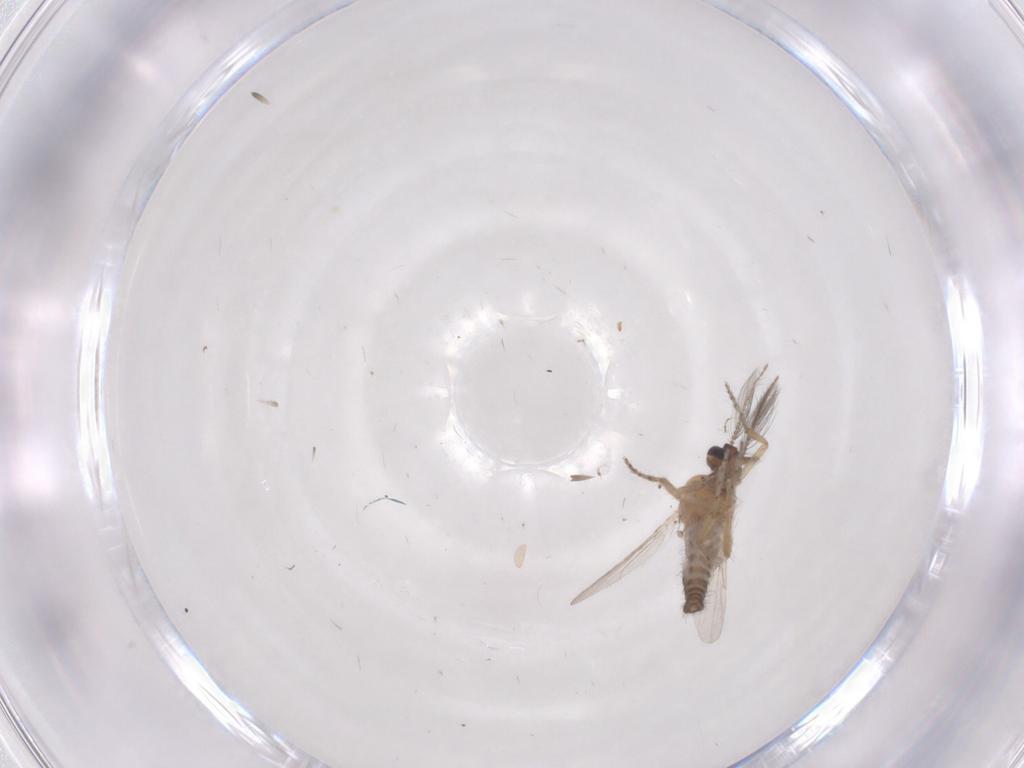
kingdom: Animalia
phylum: Arthropoda
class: Insecta
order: Diptera
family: Ceratopogonidae
